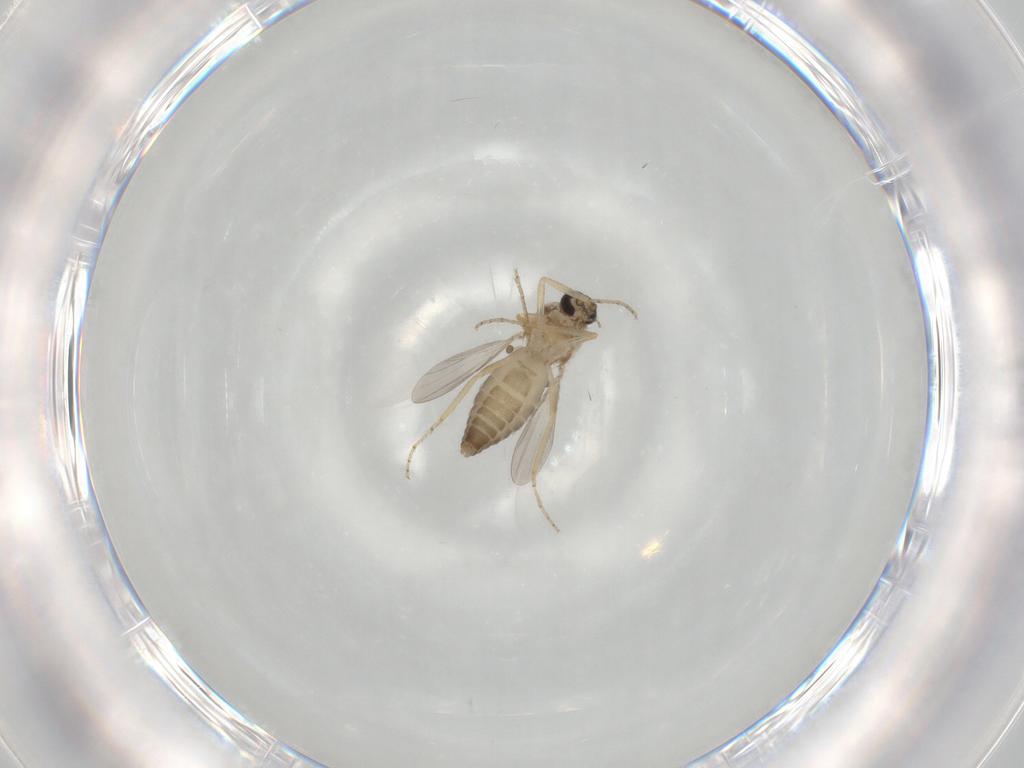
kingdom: Animalia
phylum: Arthropoda
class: Insecta
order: Diptera
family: Ceratopogonidae
